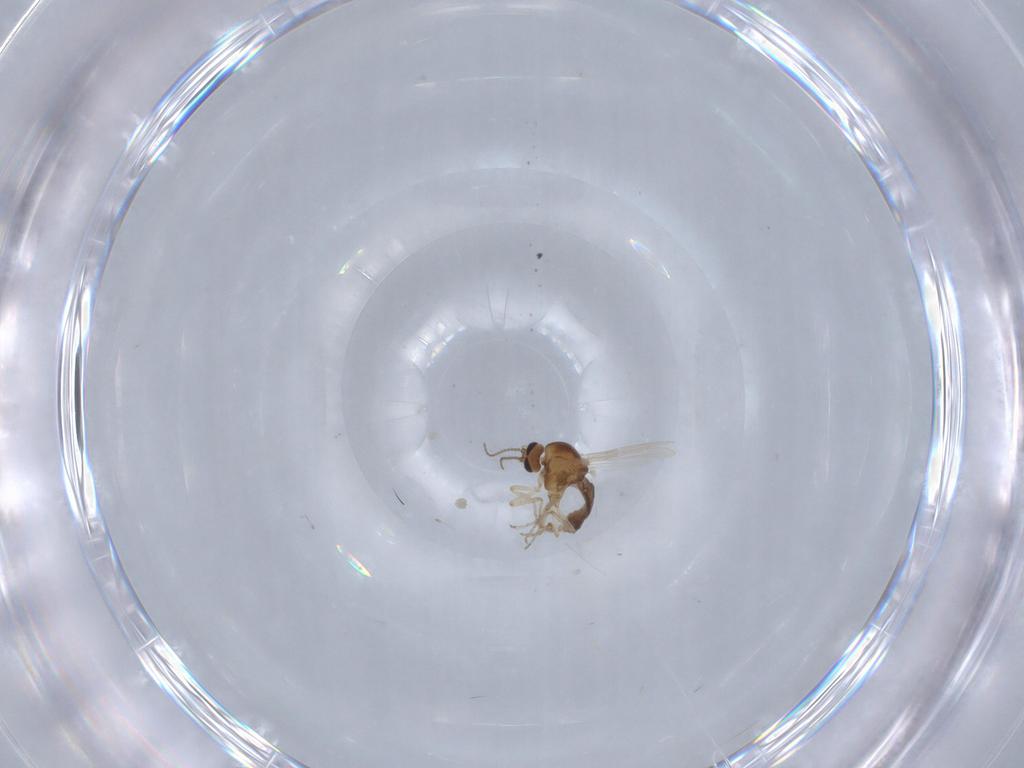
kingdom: Animalia
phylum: Arthropoda
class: Insecta
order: Diptera
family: Ceratopogonidae
